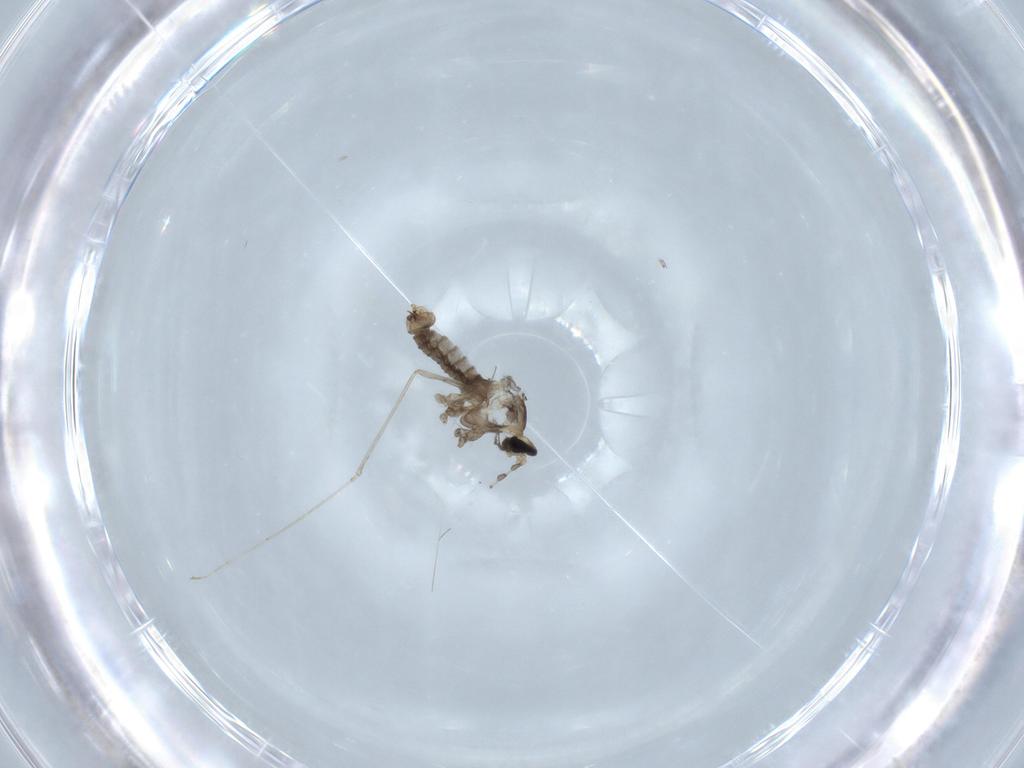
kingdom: Animalia
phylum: Arthropoda
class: Insecta
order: Diptera
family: Cecidomyiidae
